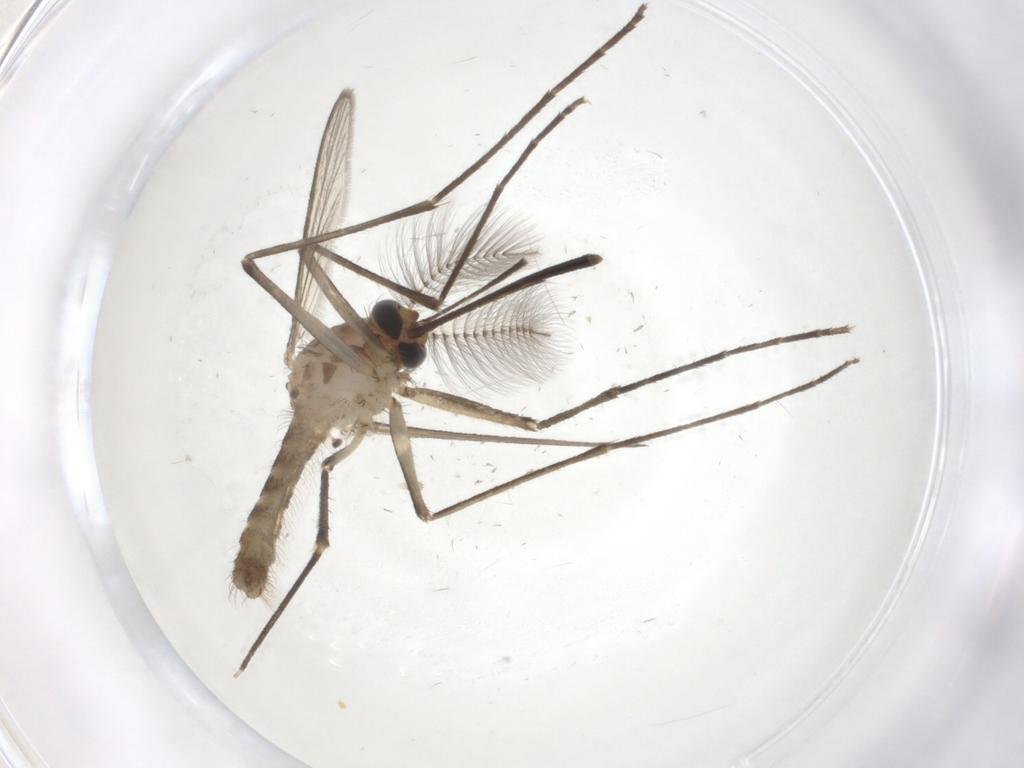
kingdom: Animalia
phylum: Arthropoda
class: Insecta
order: Diptera
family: Culicidae
